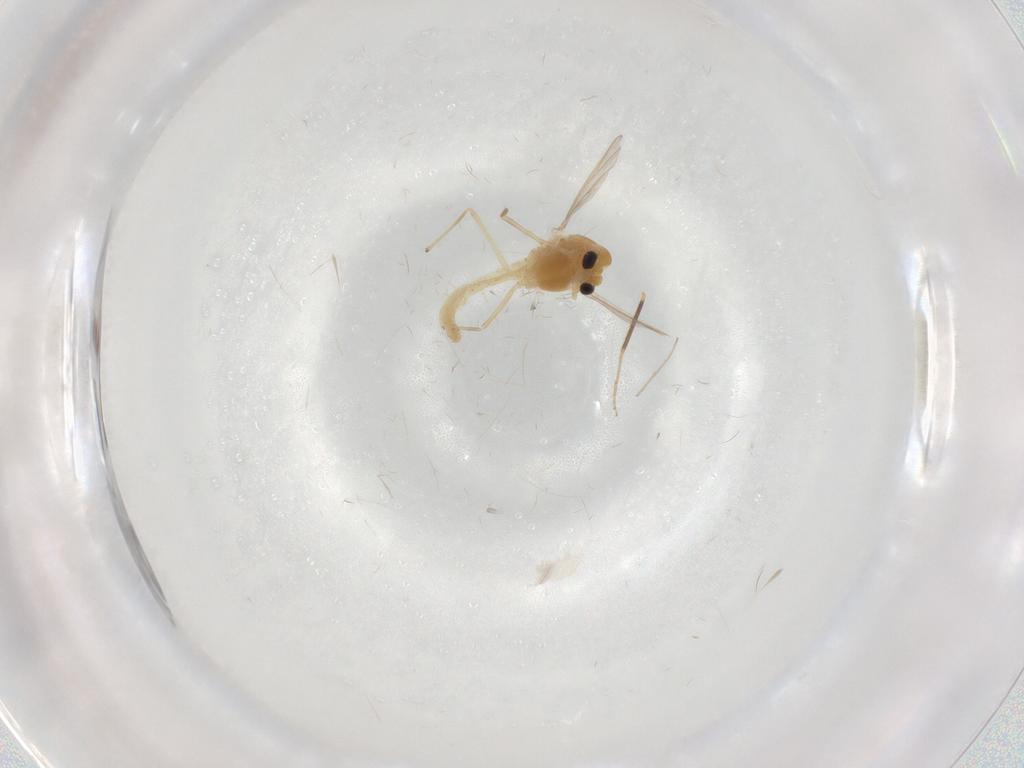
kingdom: Animalia
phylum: Arthropoda
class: Insecta
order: Diptera
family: Chironomidae
